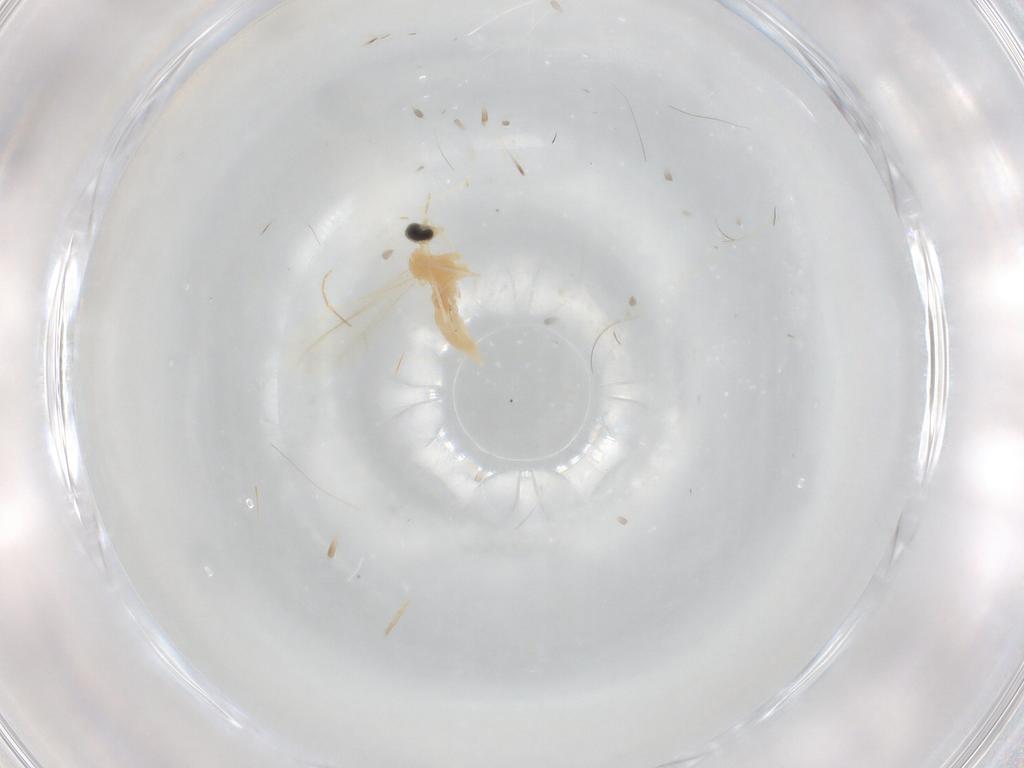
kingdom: Animalia
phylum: Arthropoda
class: Insecta
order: Diptera
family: Cecidomyiidae
